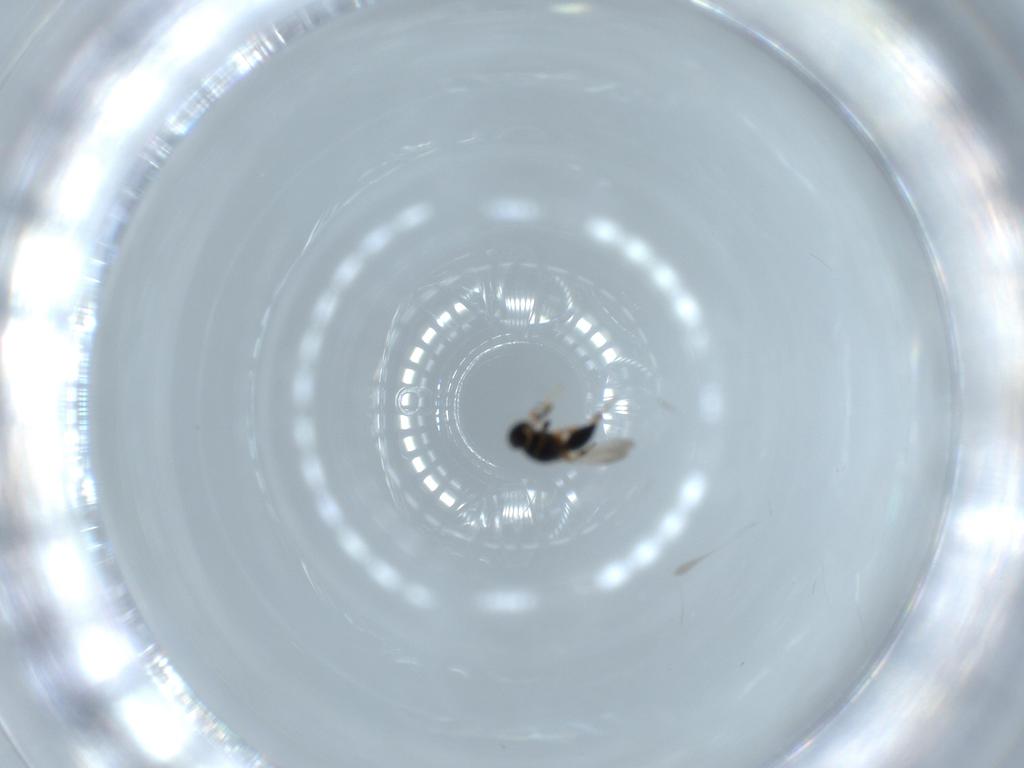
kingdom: Animalia
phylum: Arthropoda
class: Insecta
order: Hymenoptera
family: Platygastridae
